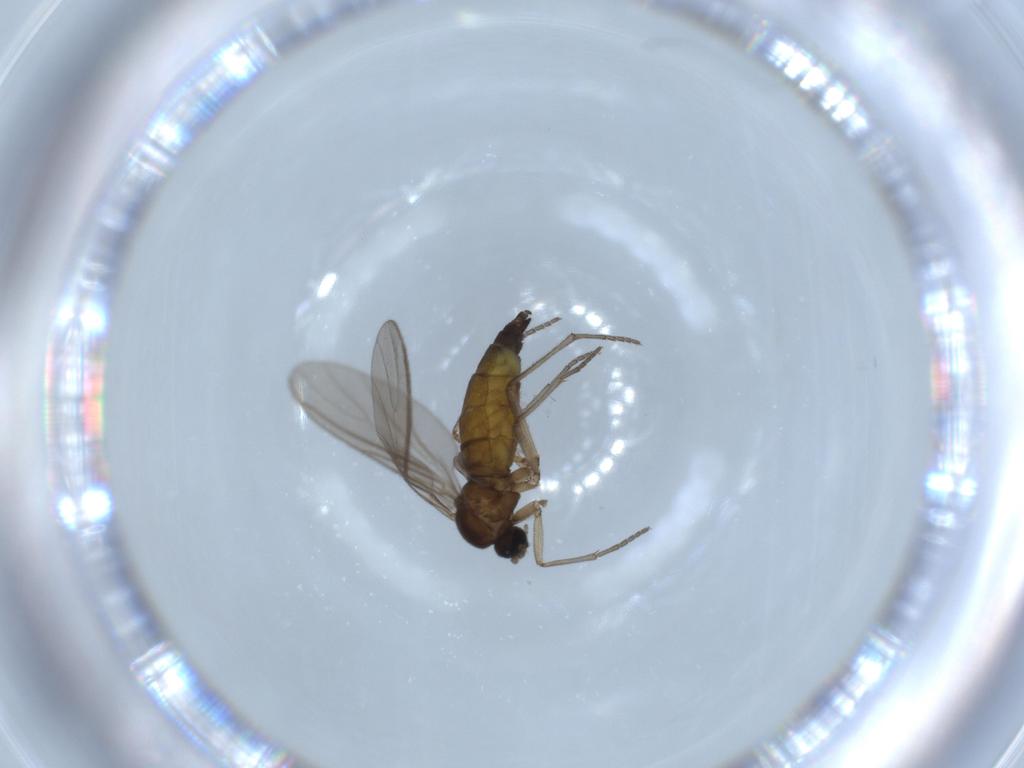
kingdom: Animalia
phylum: Arthropoda
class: Insecta
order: Diptera
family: Sciaridae
